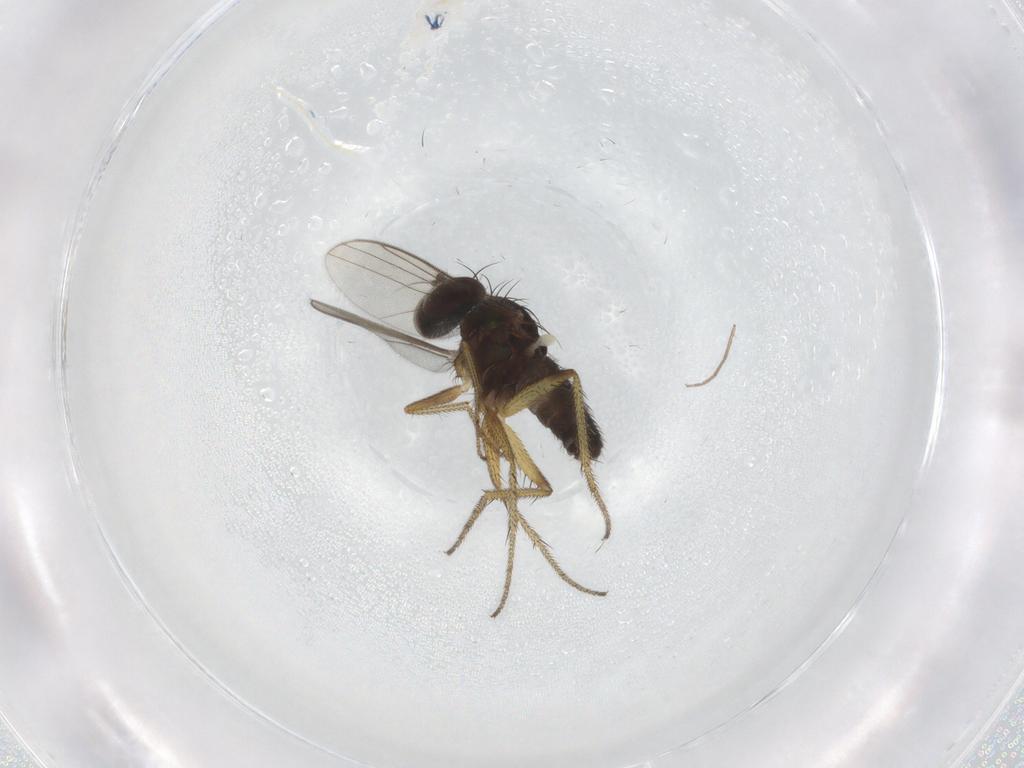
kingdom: Animalia
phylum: Arthropoda
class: Insecta
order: Diptera
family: Chironomidae
